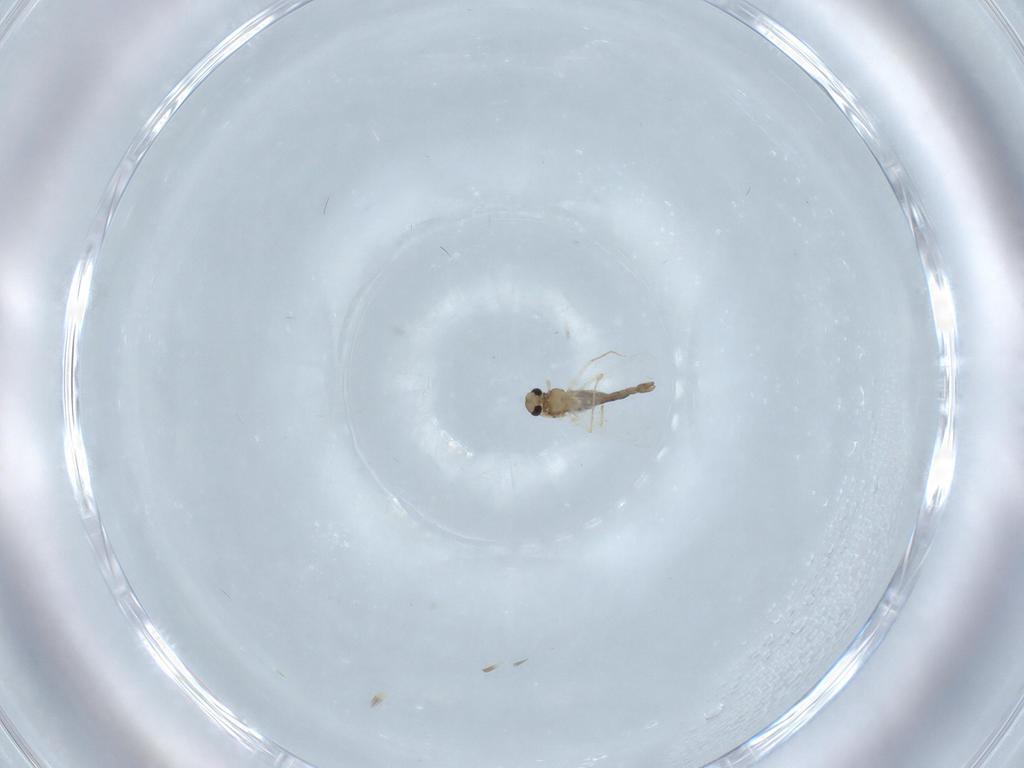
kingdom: Animalia
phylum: Arthropoda
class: Insecta
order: Diptera
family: Chironomidae
